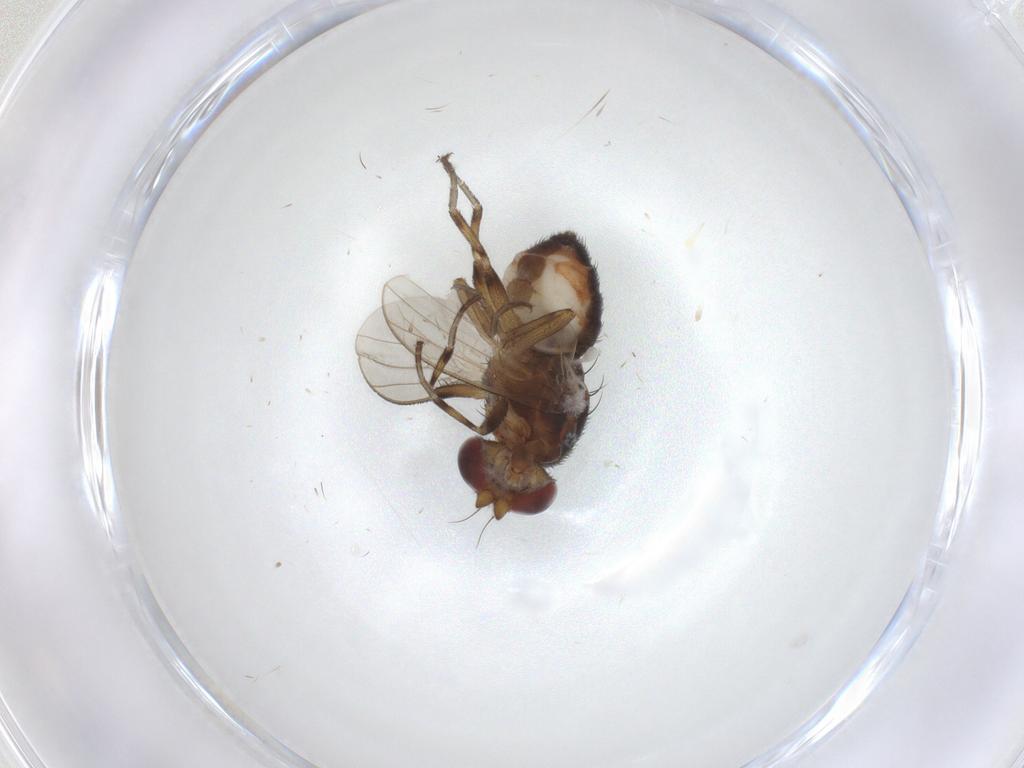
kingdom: Animalia
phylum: Arthropoda
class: Insecta
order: Diptera
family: Heleomyzidae
